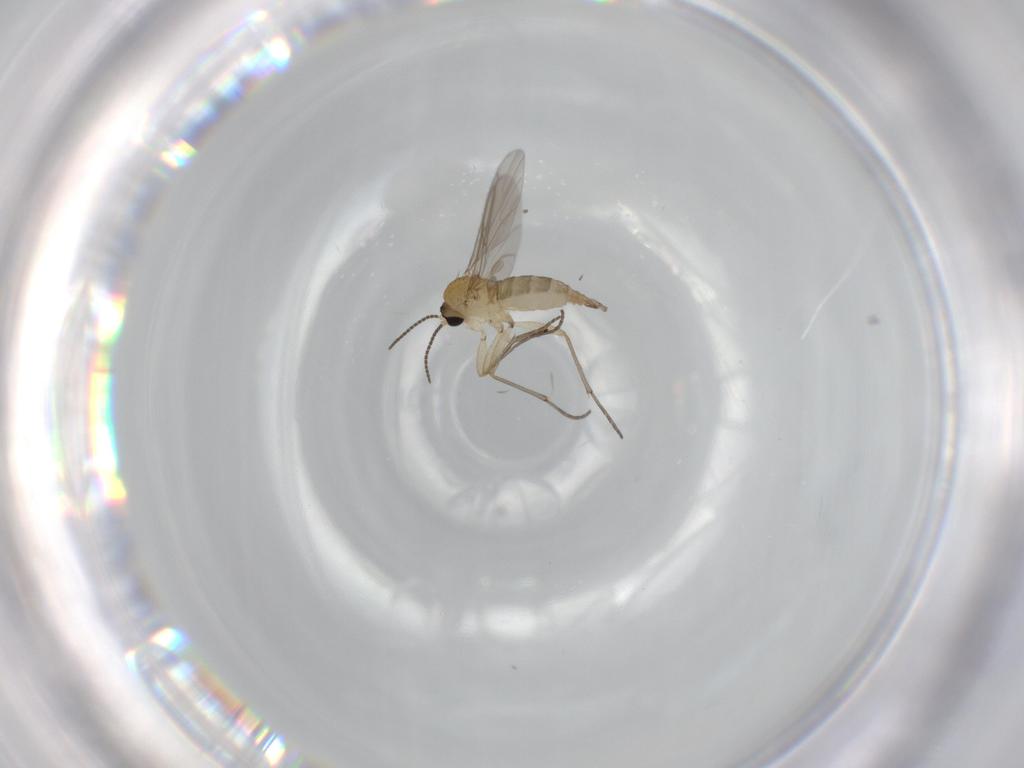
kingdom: Animalia
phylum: Arthropoda
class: Insecta
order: Diptera
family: Sciaridae
